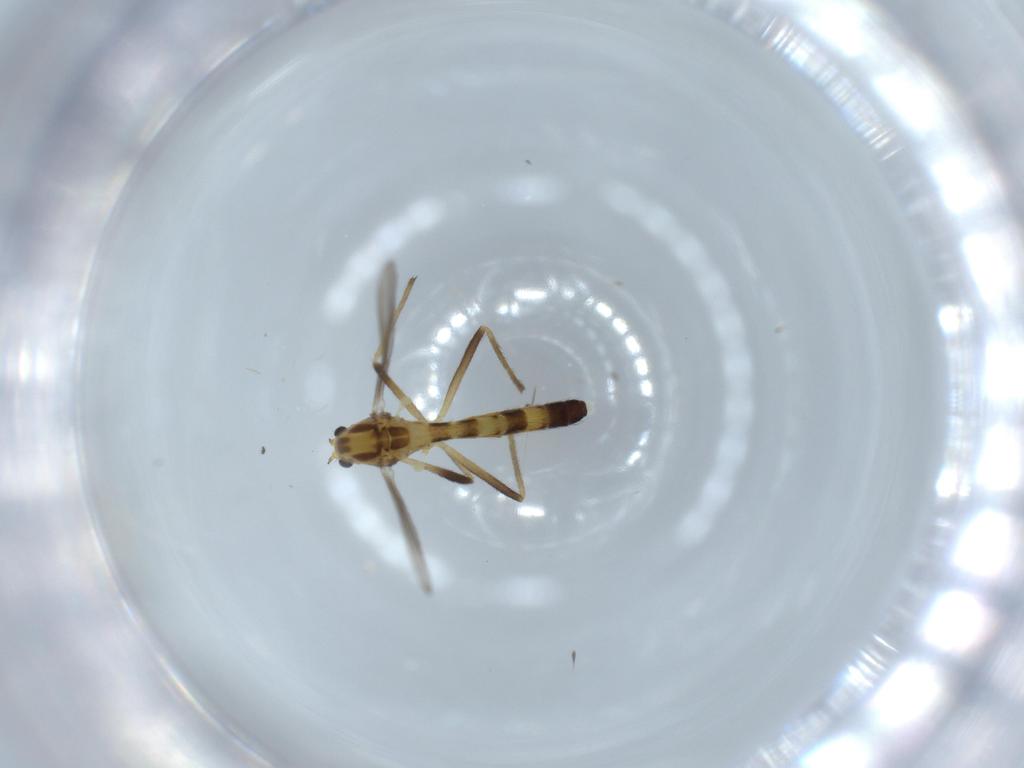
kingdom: Animalia
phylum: Arthropoda
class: Insecta
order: Diptera
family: Chironomidae
